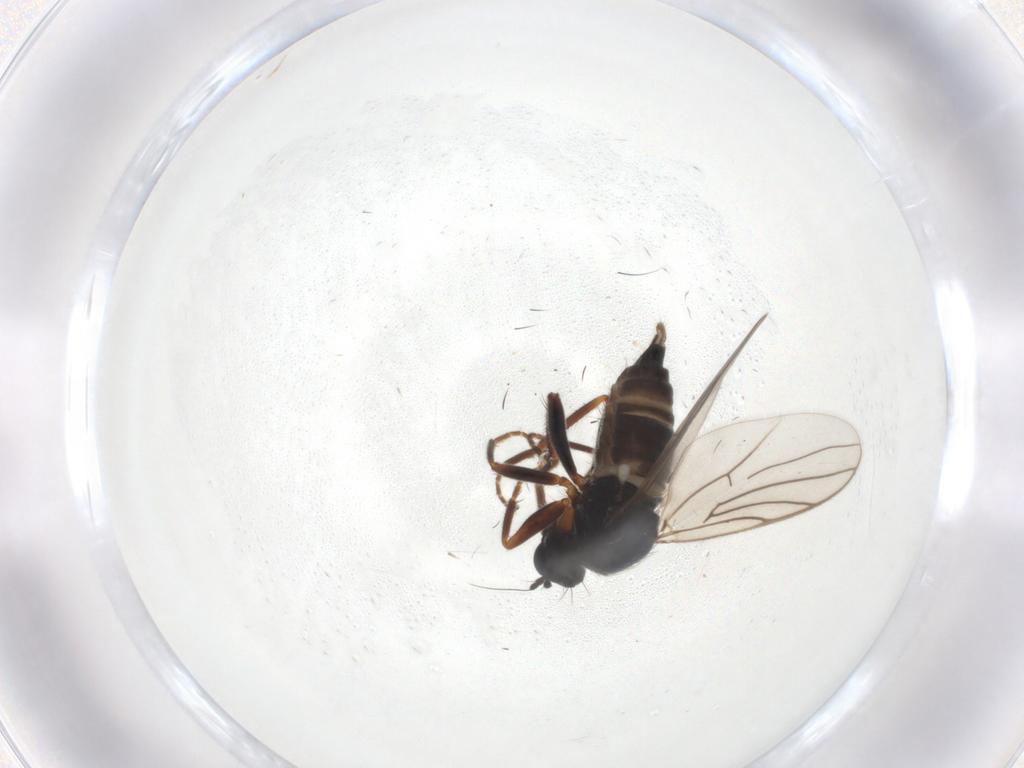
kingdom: Animalia
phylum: Arthropoda
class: Insecta
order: Diptera
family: Hybotidae
